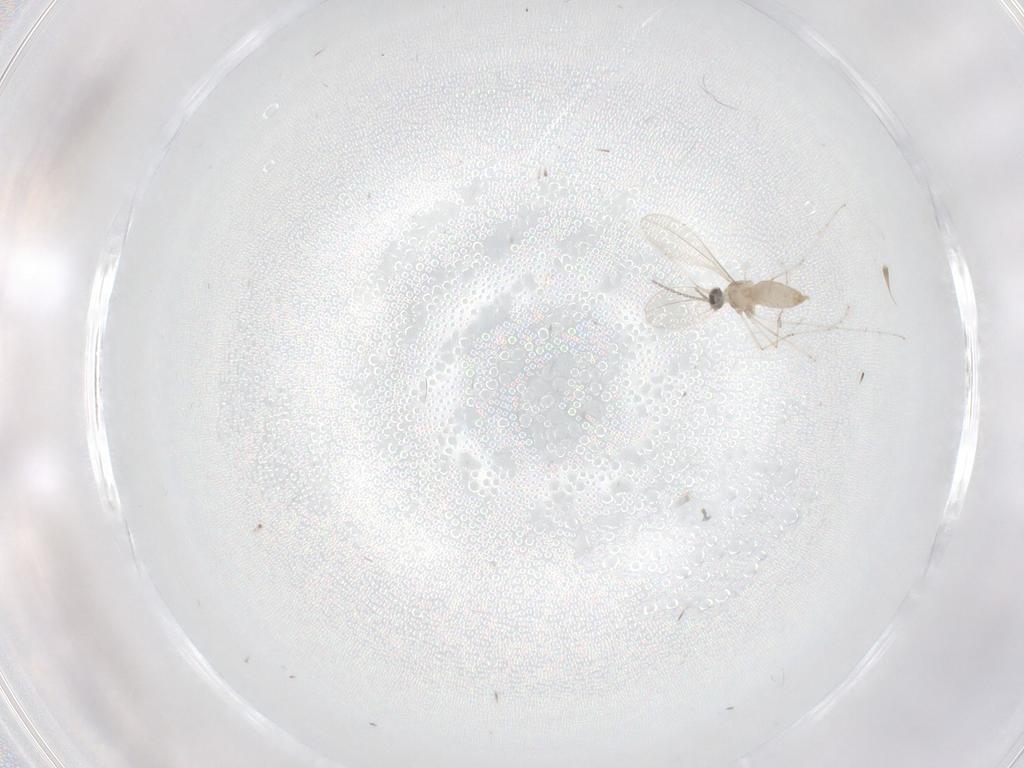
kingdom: Animalia
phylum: Arthropoda
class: Insecta
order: Diptera
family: Cecidomyiidae
